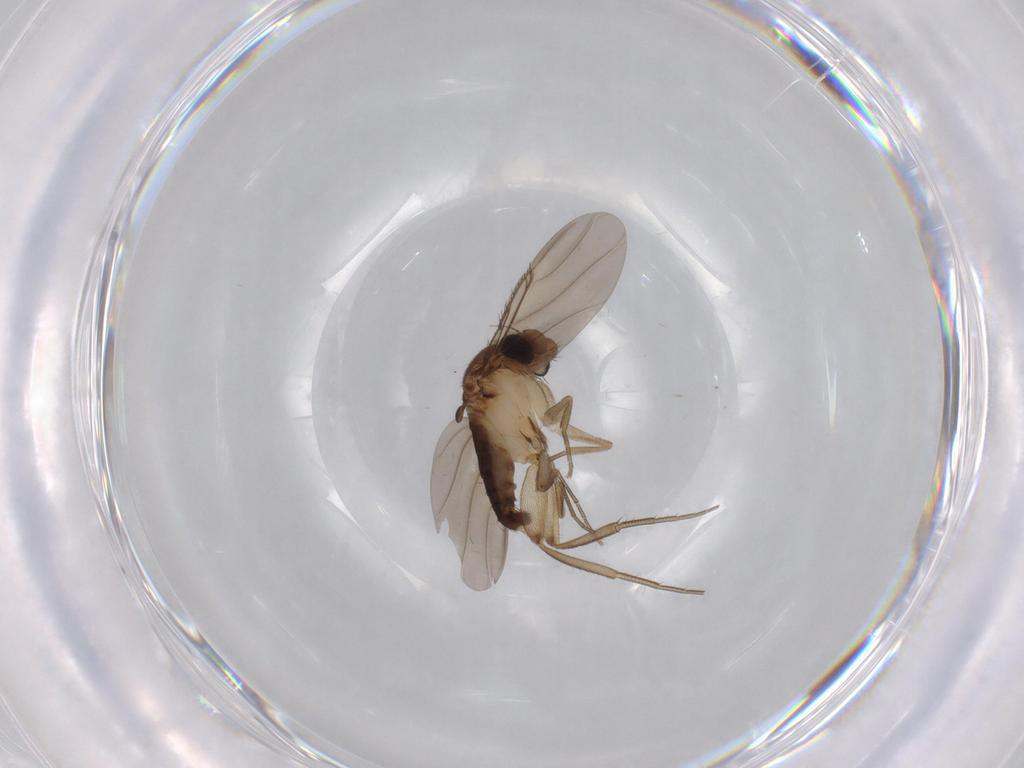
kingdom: Animalia
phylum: Arthropoda
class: Insecta
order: Diptera
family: Phoridae
